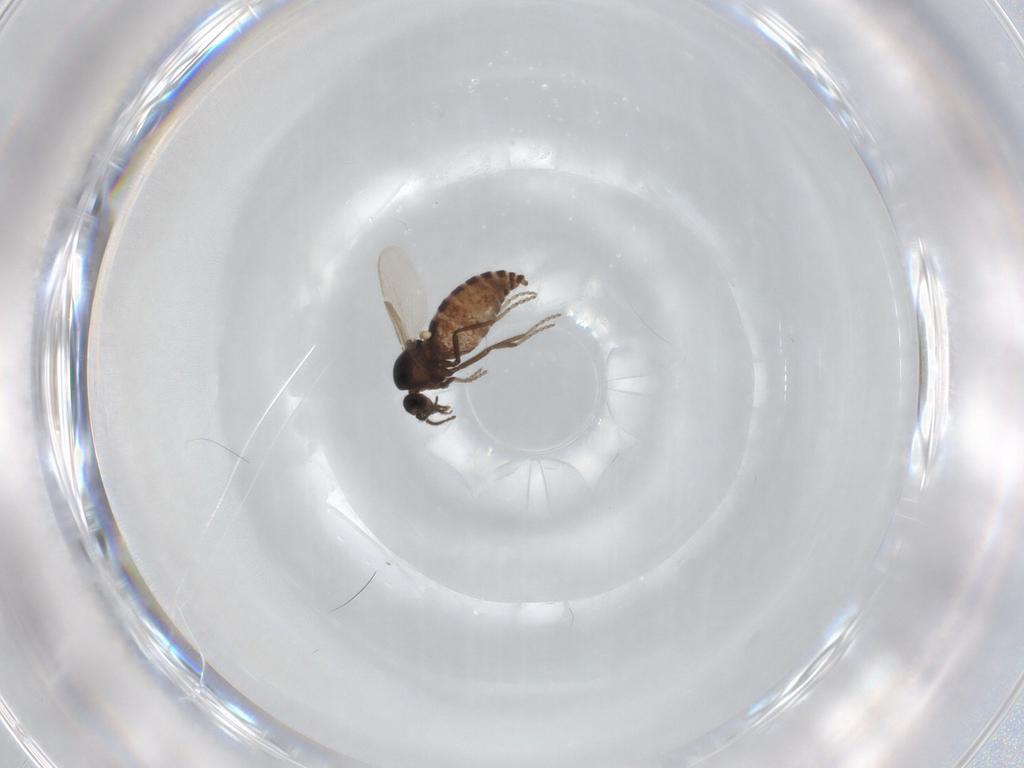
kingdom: Animalia
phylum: Arthropoda
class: Insecta
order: Diptera
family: Ceratopogonidae
